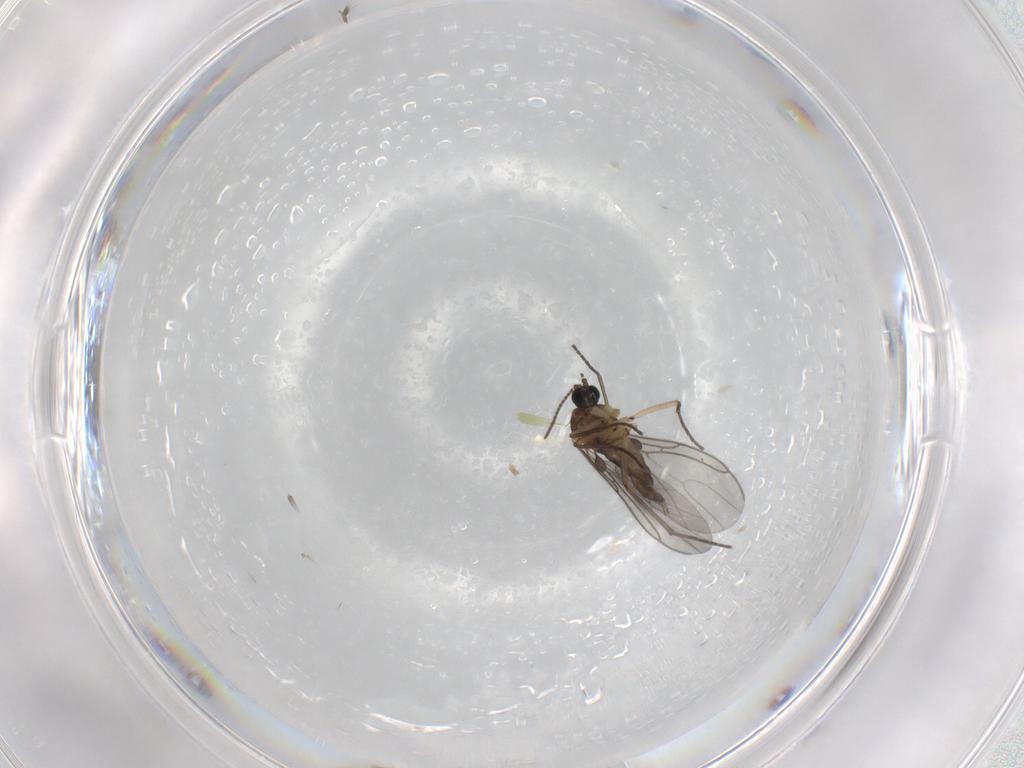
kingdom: Animalia
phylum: Arthropoda
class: Insecta
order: Diptera
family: Sciaridae
